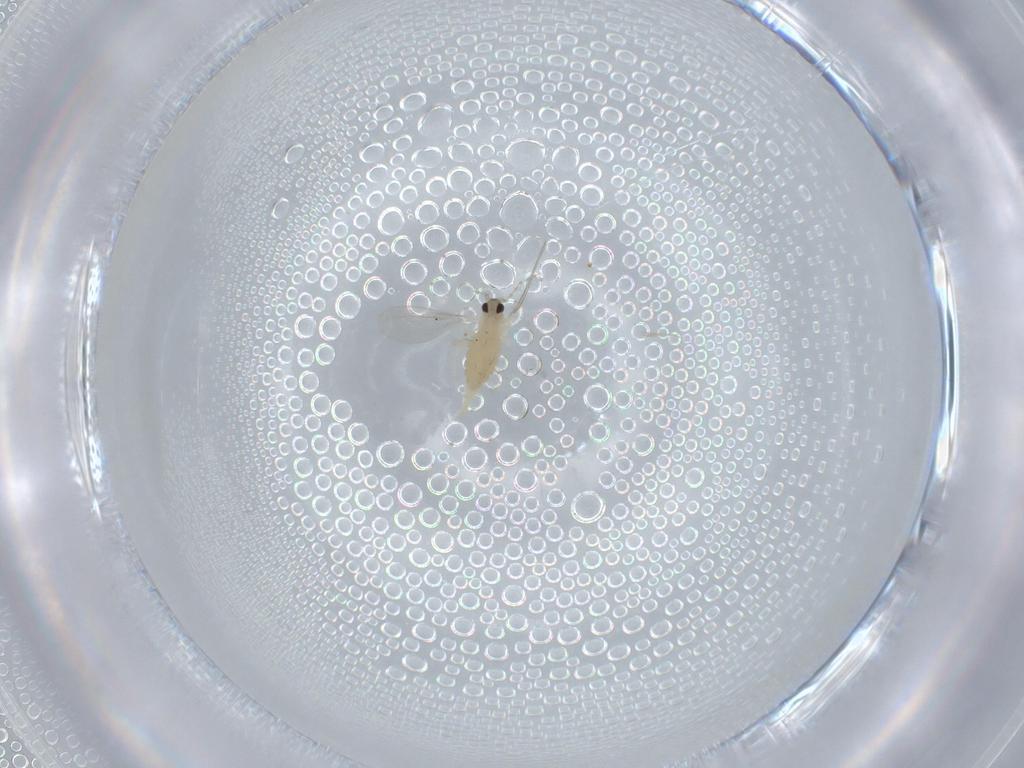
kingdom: Animalia
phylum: Arthropoda
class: Insecta
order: Diptera
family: Cecidomyiidae
